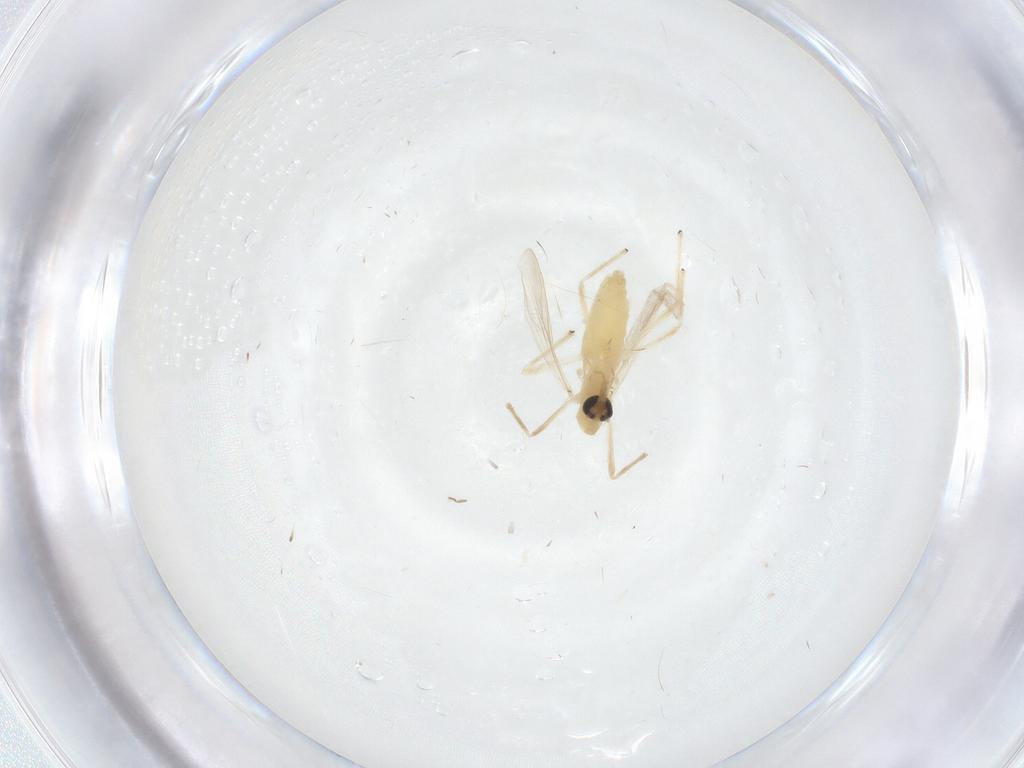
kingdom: Animalia
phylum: Arthropoda
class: Insecta
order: Diptera
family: Chironomidae
